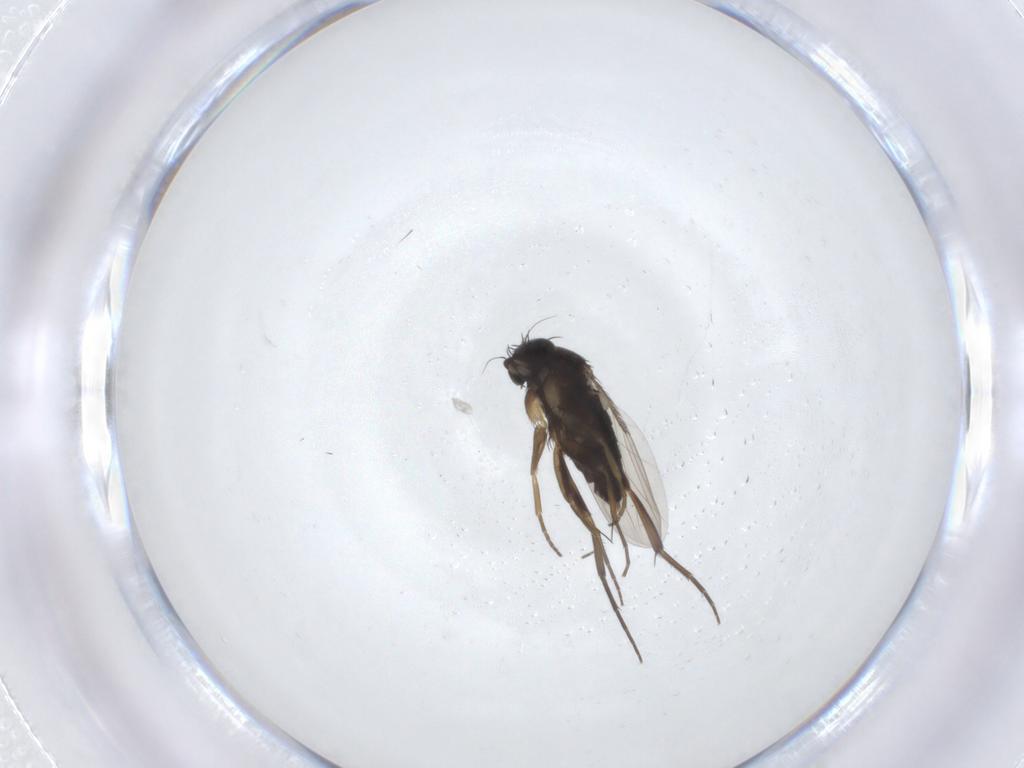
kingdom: Animalia
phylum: Arthropoda
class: Insecta
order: Diptera
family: Phoridae
